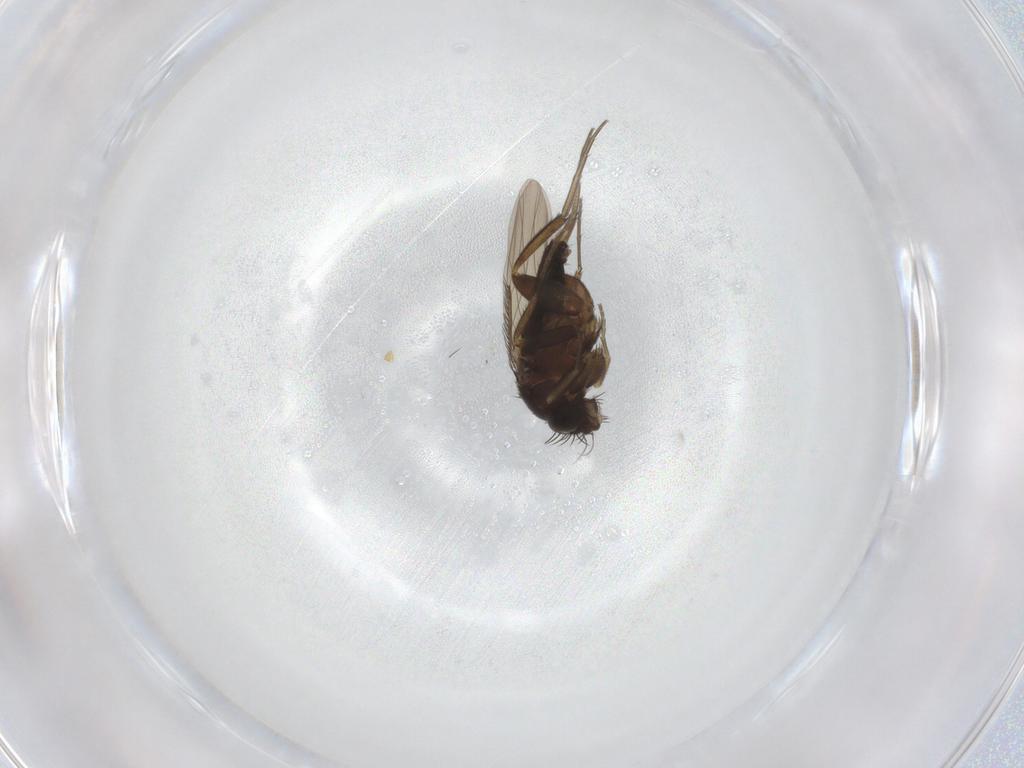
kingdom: Animalia
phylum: Arthropoda
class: Insecta
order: Diptera
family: Phoridae
